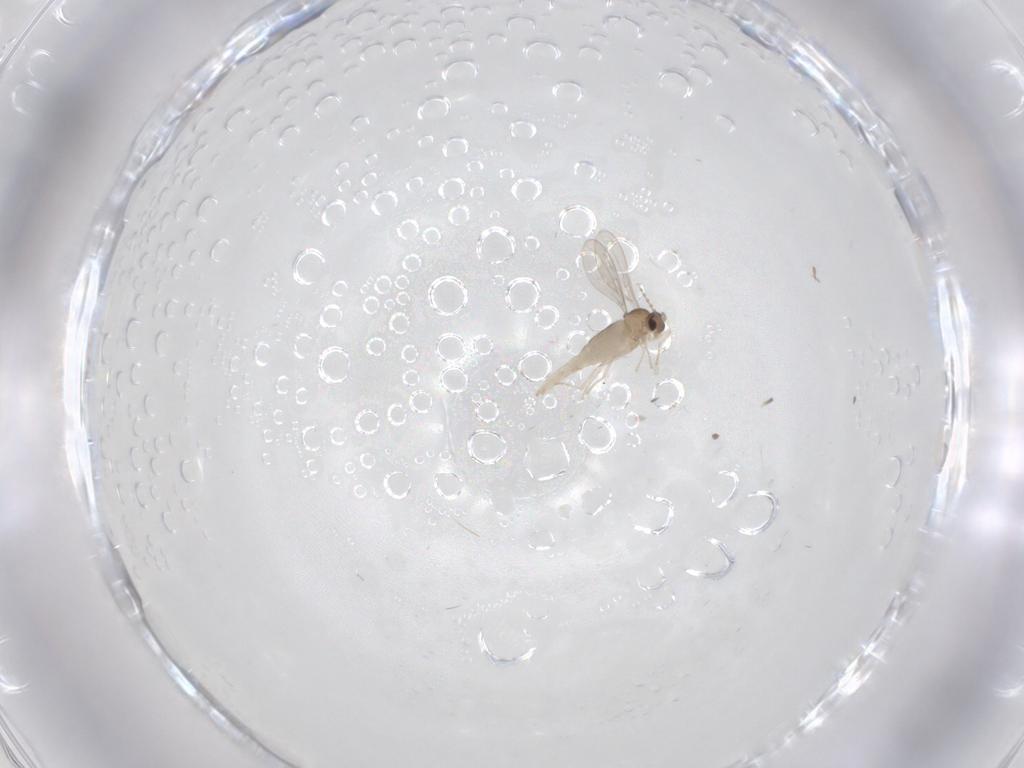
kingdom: Animalia
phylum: Arthropoda
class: Insecta
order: Diptera
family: Cecidomyiidae
